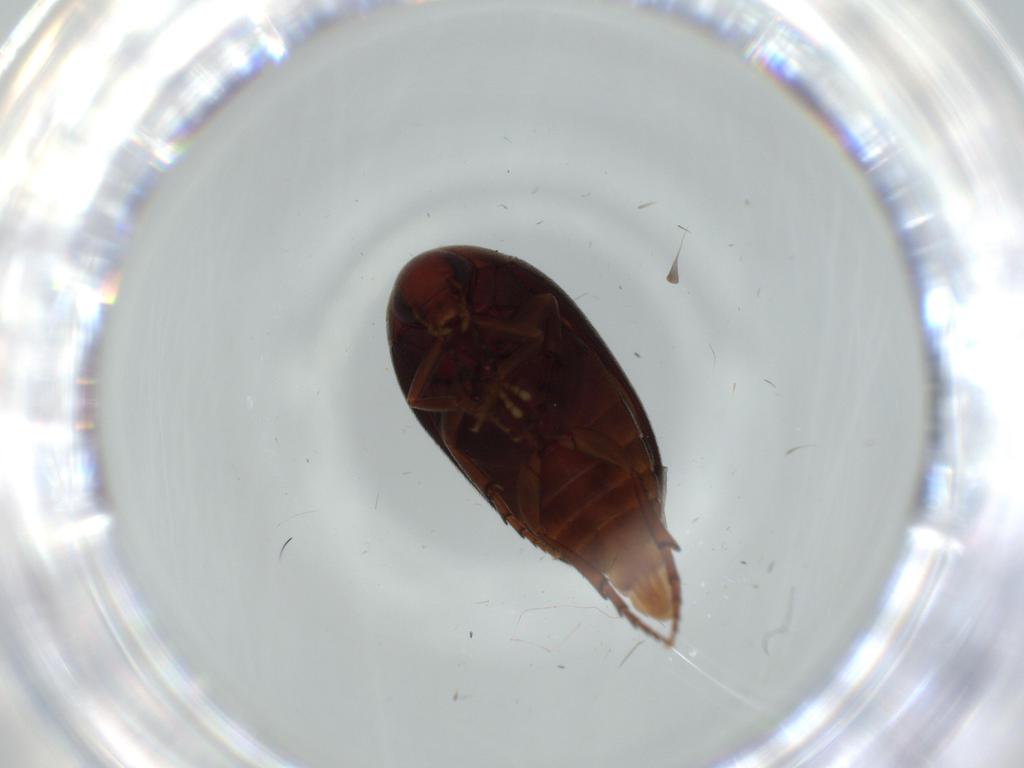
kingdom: Animalia
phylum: Arthropoda
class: Insecta
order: Coleoptera
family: Eucinetidae
